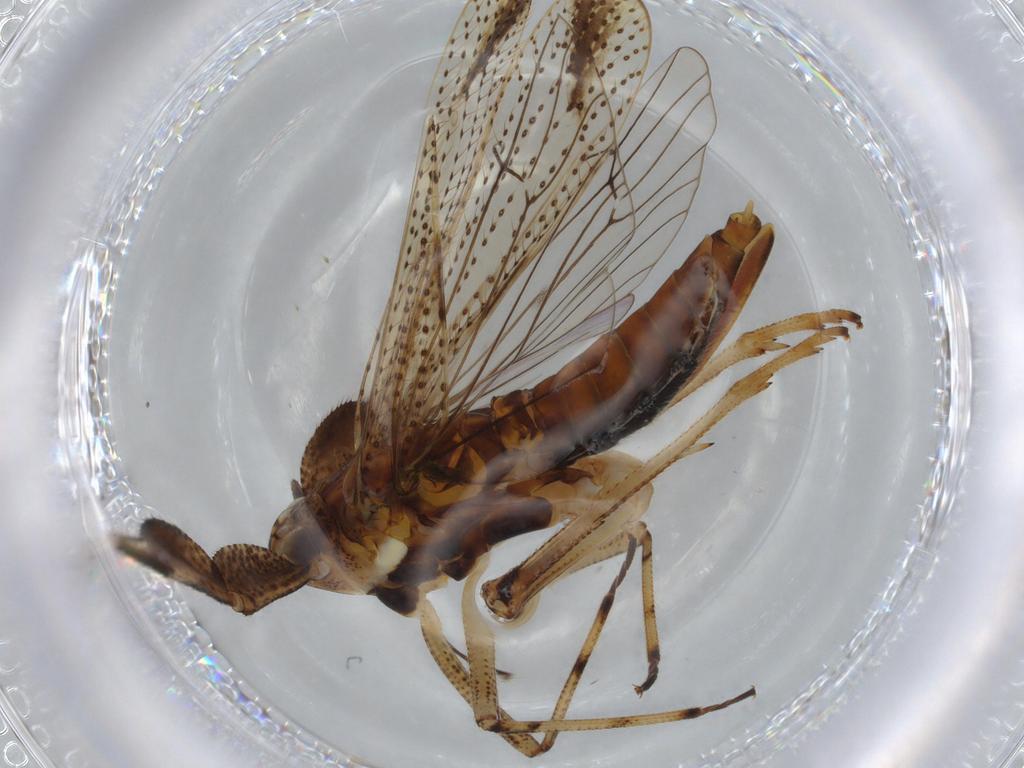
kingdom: Animalia
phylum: Arthropoda
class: Insecta
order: Hemiptera
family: Delphacidae
